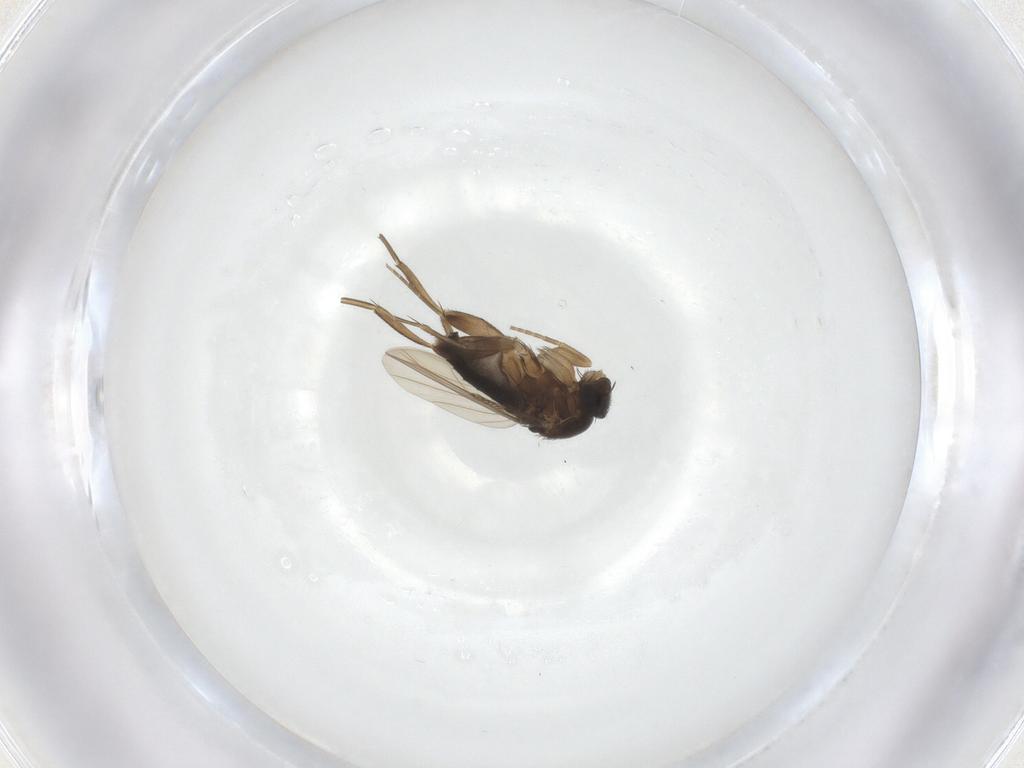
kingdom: Animalia
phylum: Arthropoda
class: Insecta
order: Diptera
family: Phoridae
